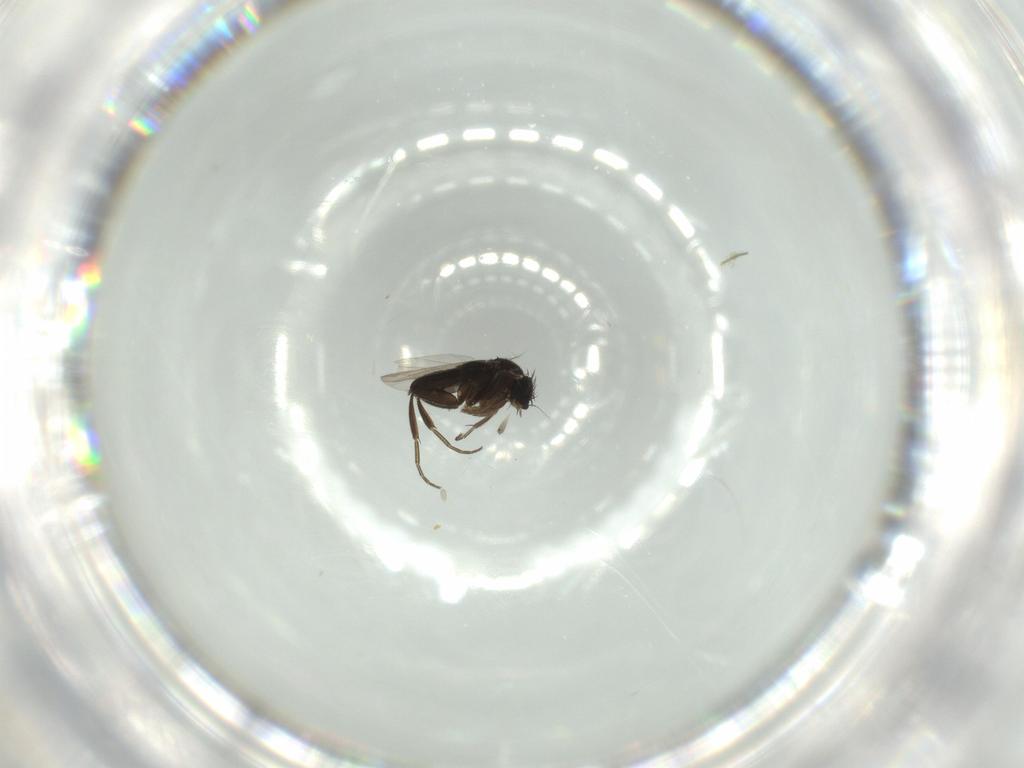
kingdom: Animalia
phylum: Arthropoda
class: Insecta
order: Diptera
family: Phoridae
